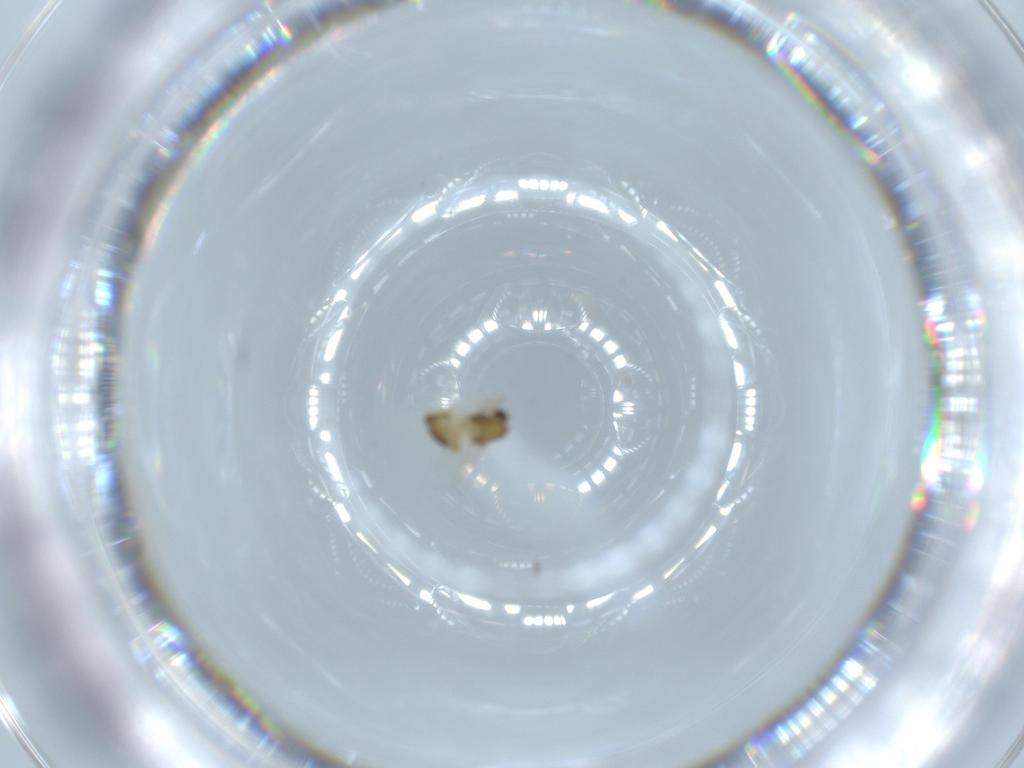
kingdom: Animalia
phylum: Arthropoda
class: Insecta
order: Diptera
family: Chironomidae
